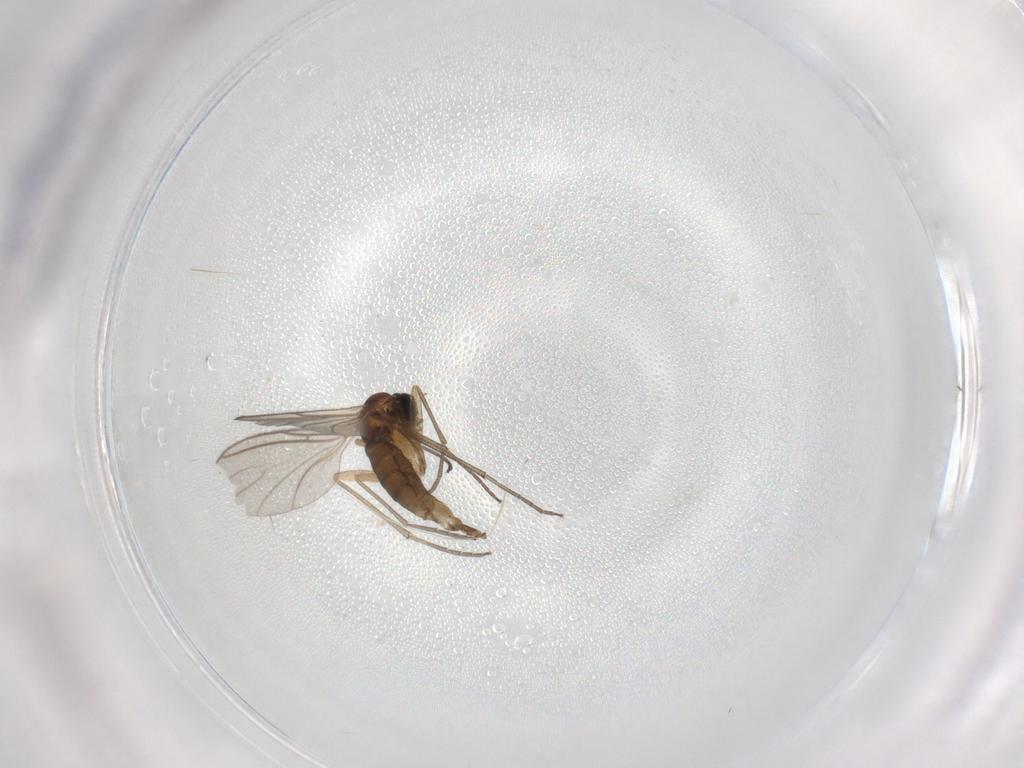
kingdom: Animalia
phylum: Arthropoda
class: Insecta
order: Diptera
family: Sciaridae
